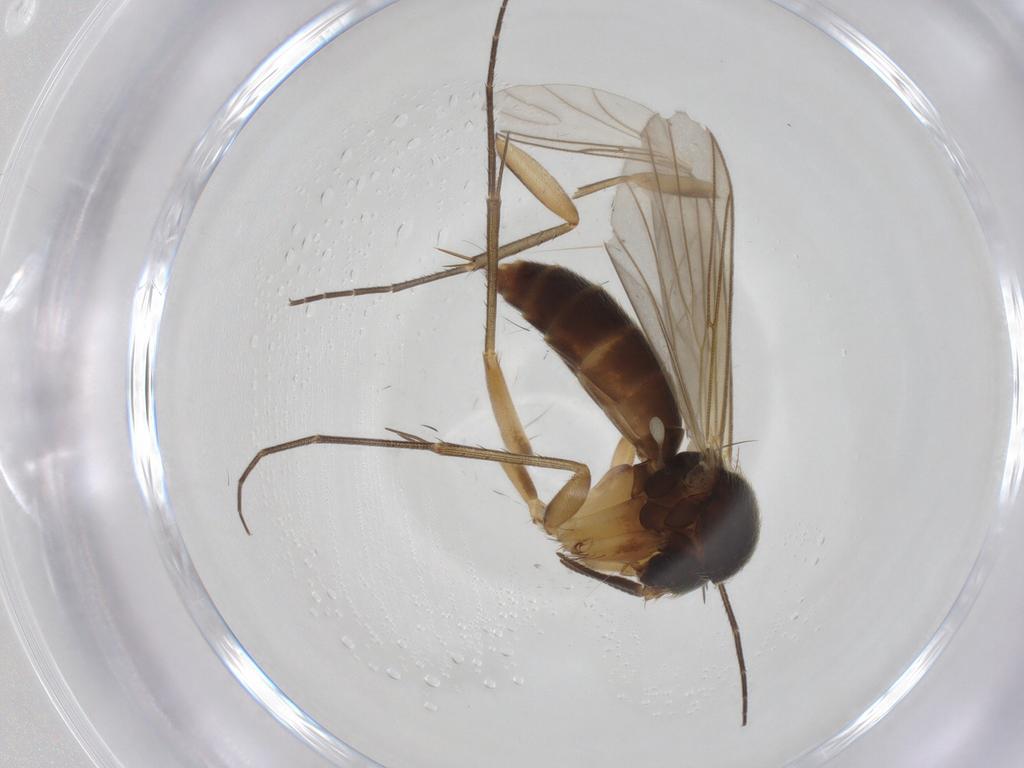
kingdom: Animalia
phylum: Arthropoda
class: Insecta
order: Diptera
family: Sciaridae
